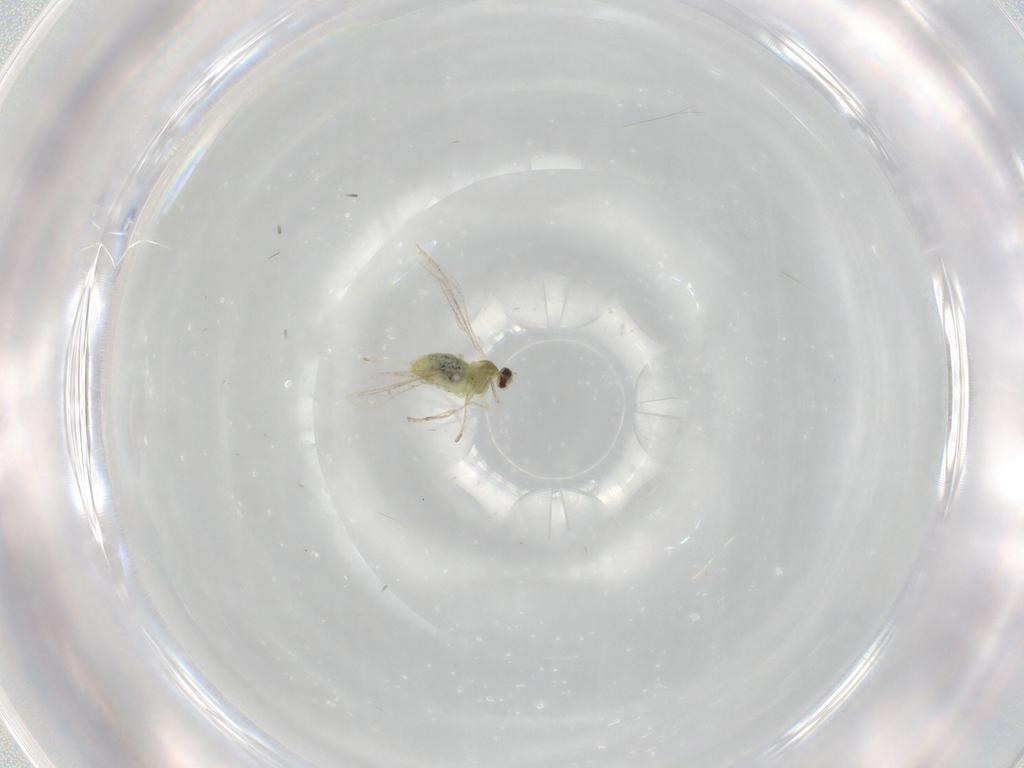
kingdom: Animalia
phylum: Arthropoda
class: Insecta
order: Diptera
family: Cecidomyiidae
